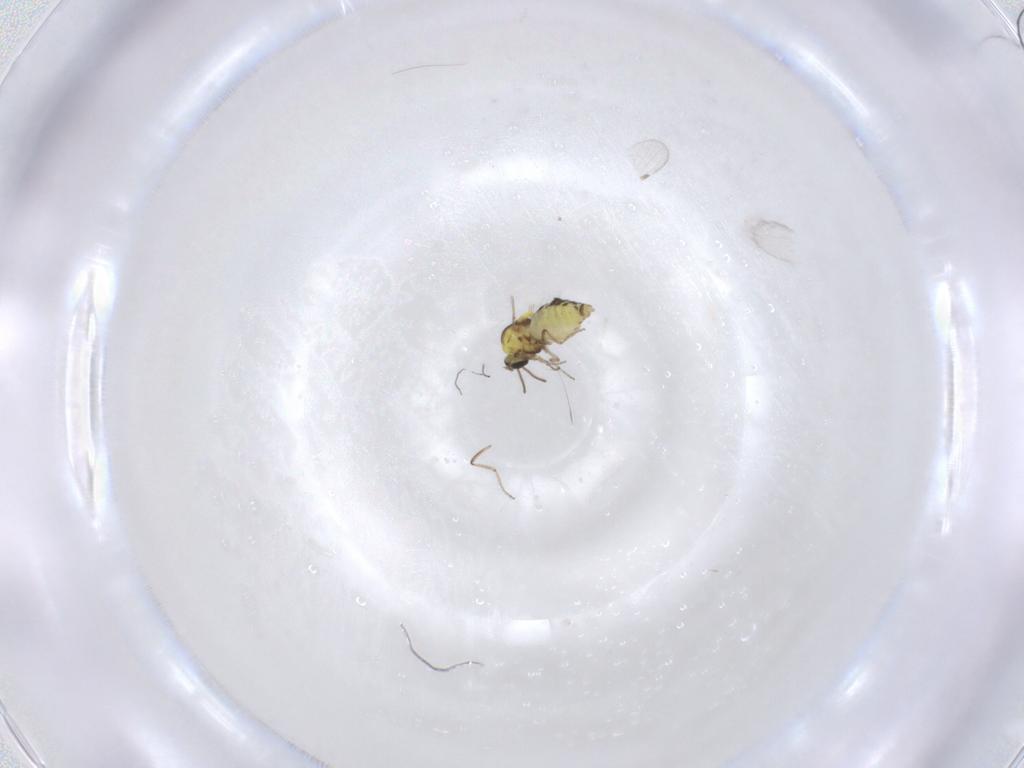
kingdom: Animalia
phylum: Arthropoda
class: Insecta
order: Diptera
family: Ceratopogonidae
